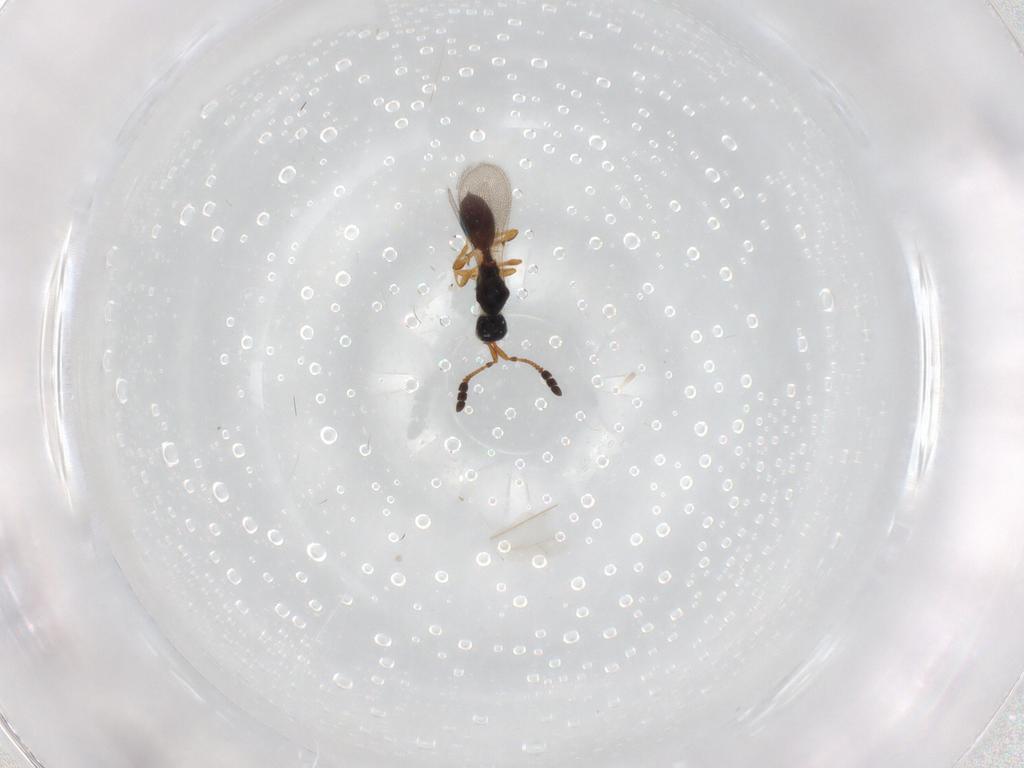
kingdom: Animalia
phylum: Arthropoda
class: Insecta
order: Hymenoptera
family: Diapriidae
